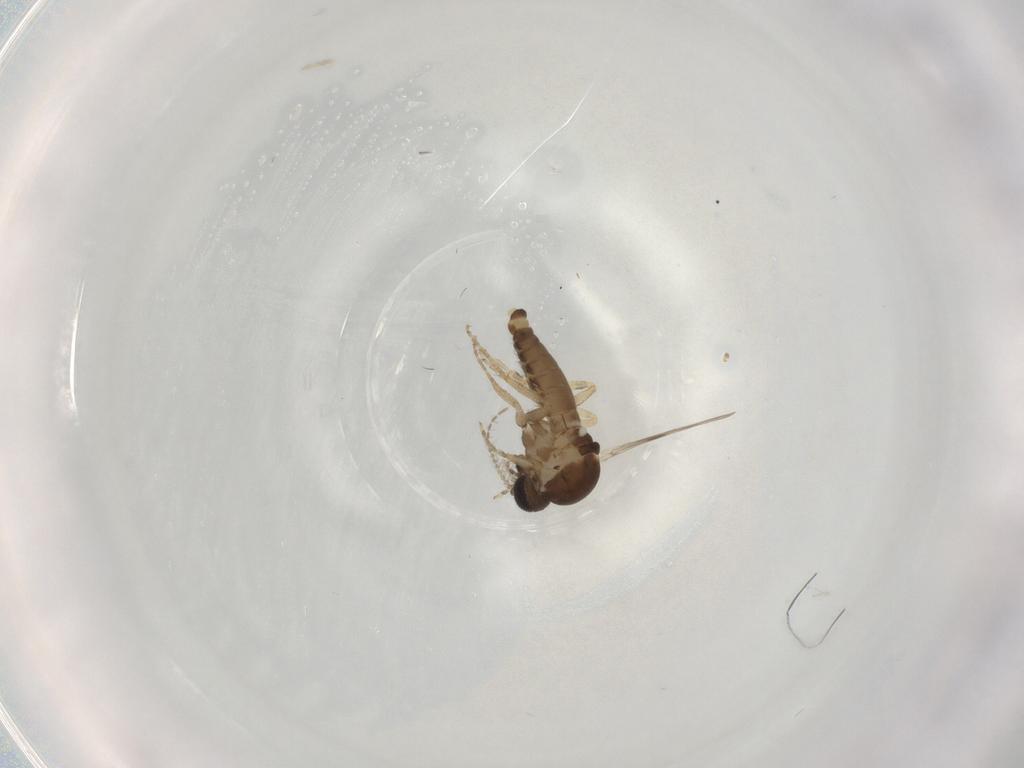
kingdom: Animalia
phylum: Arthropoda
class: Insecta
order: Diptera
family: Ceratopogonidae
